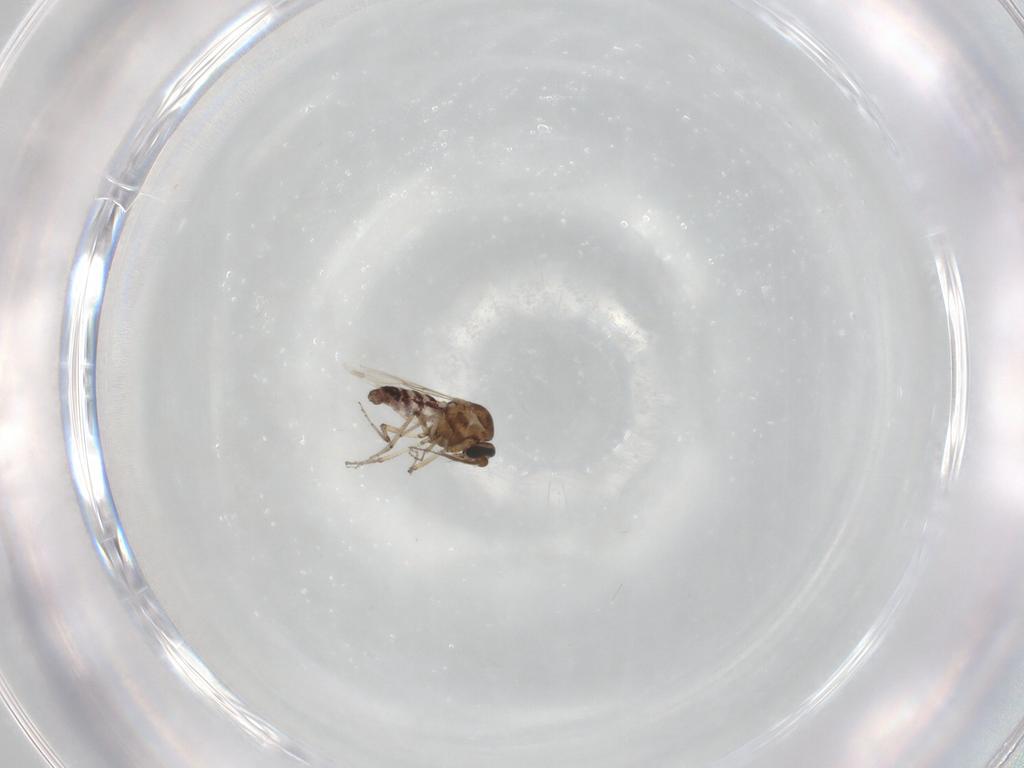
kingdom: Animalia
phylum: Arthropoda
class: Insecta
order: Diptera
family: Ceratopogonidae
